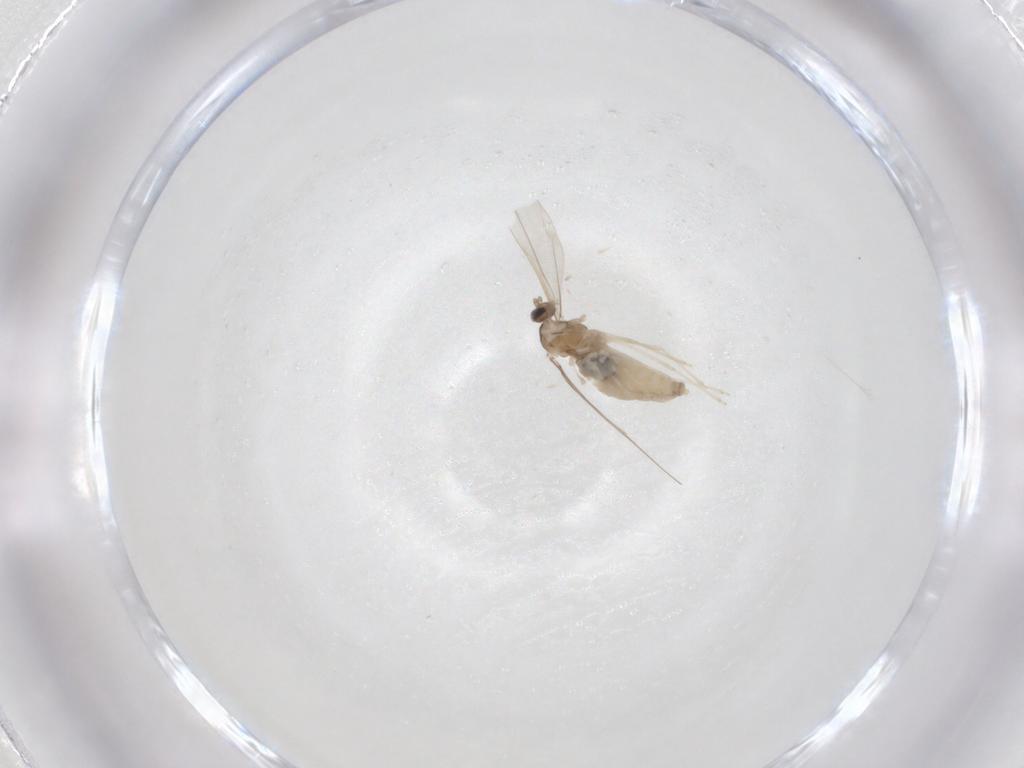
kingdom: Animalia
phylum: Arthropoda
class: Insecta
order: Diptera
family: Cecidomyiidae
